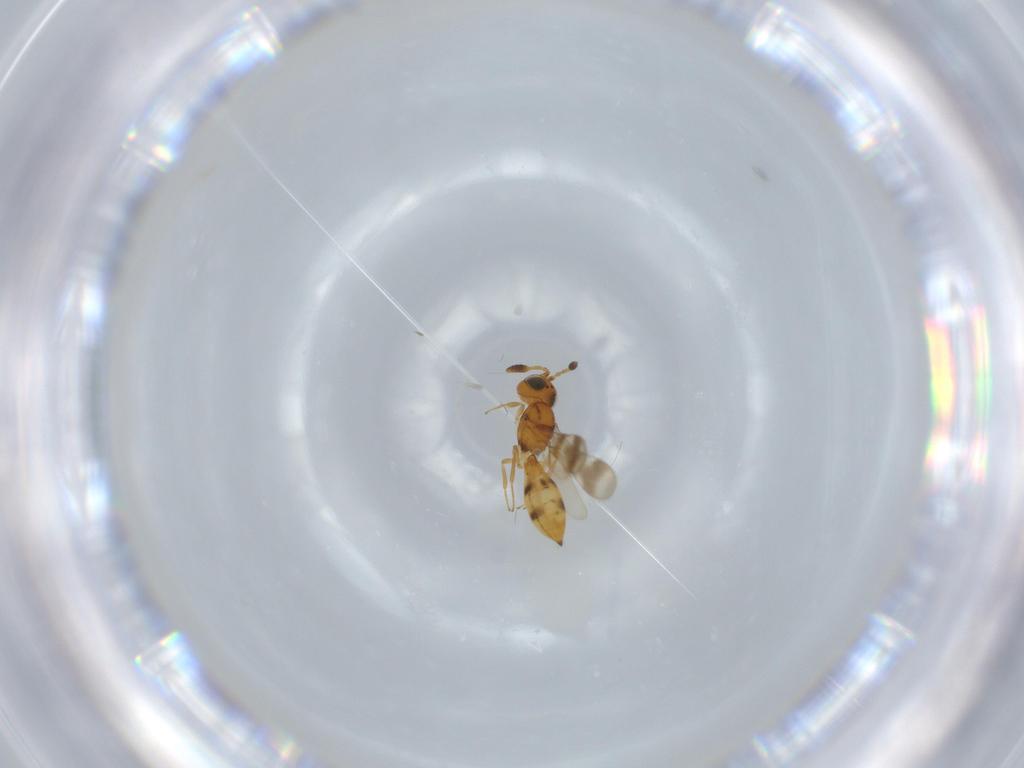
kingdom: Animalia
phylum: Arthropoda
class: Insecta
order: Hymenoptera
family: Scelionidae
